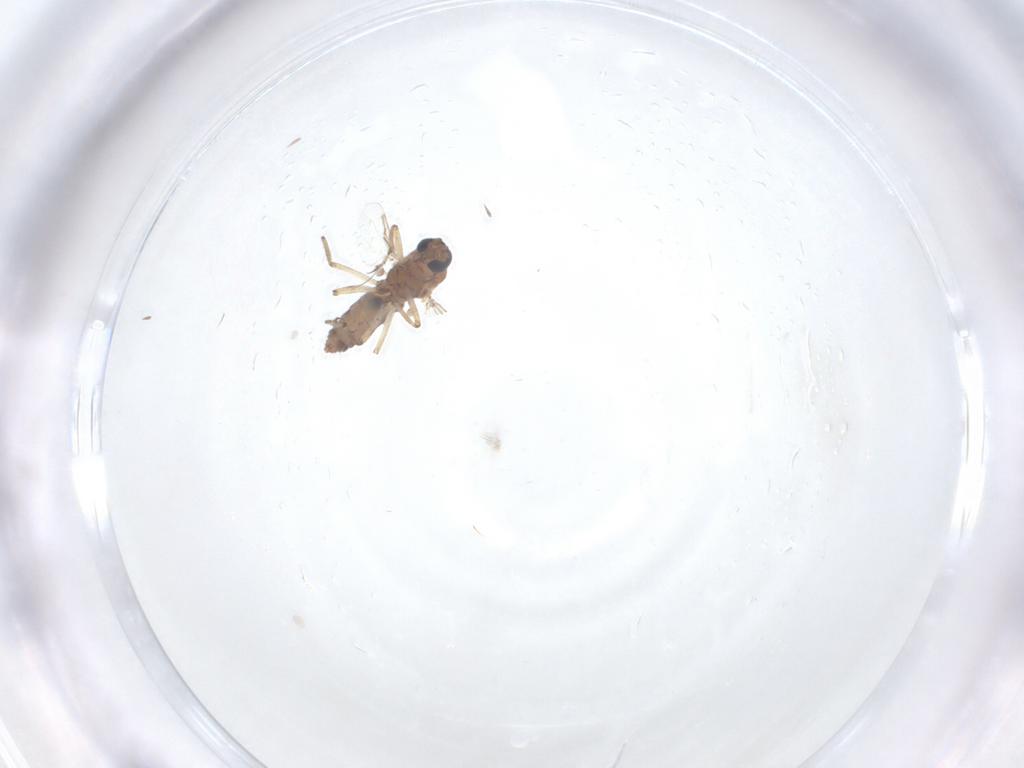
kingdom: Animalia
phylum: Arthropoda
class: Insecta
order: Diptera
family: Ceratopogonidae
